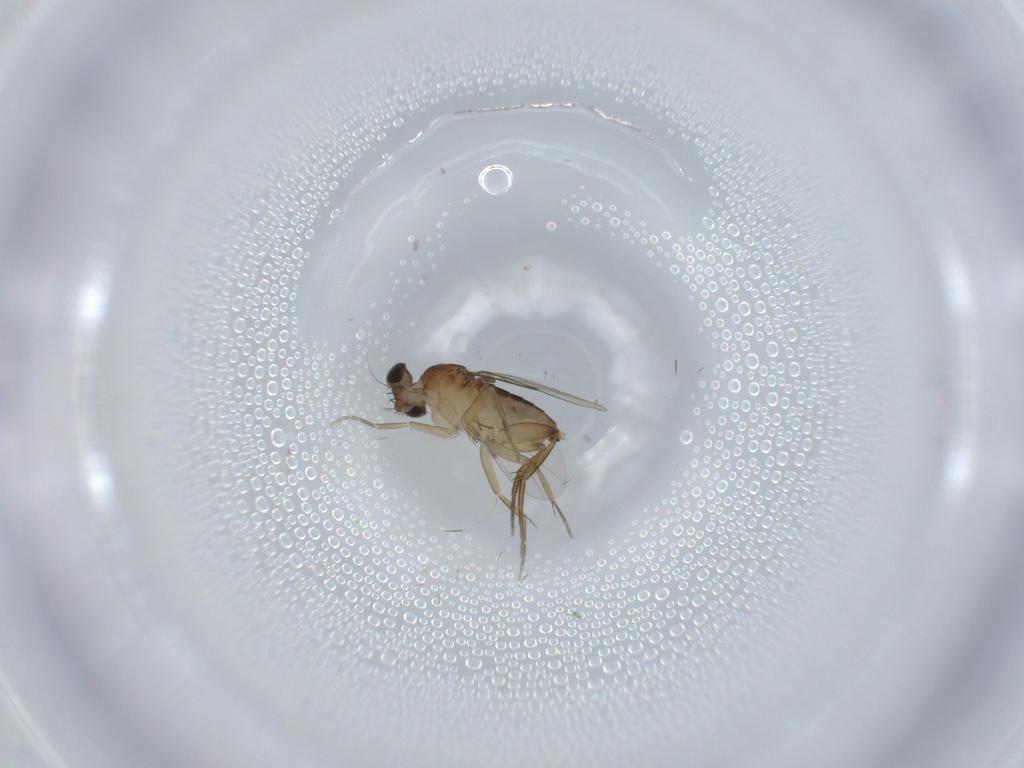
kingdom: Animalia
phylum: Arthropoda
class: Insecta
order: Diptera
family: Phoridae
